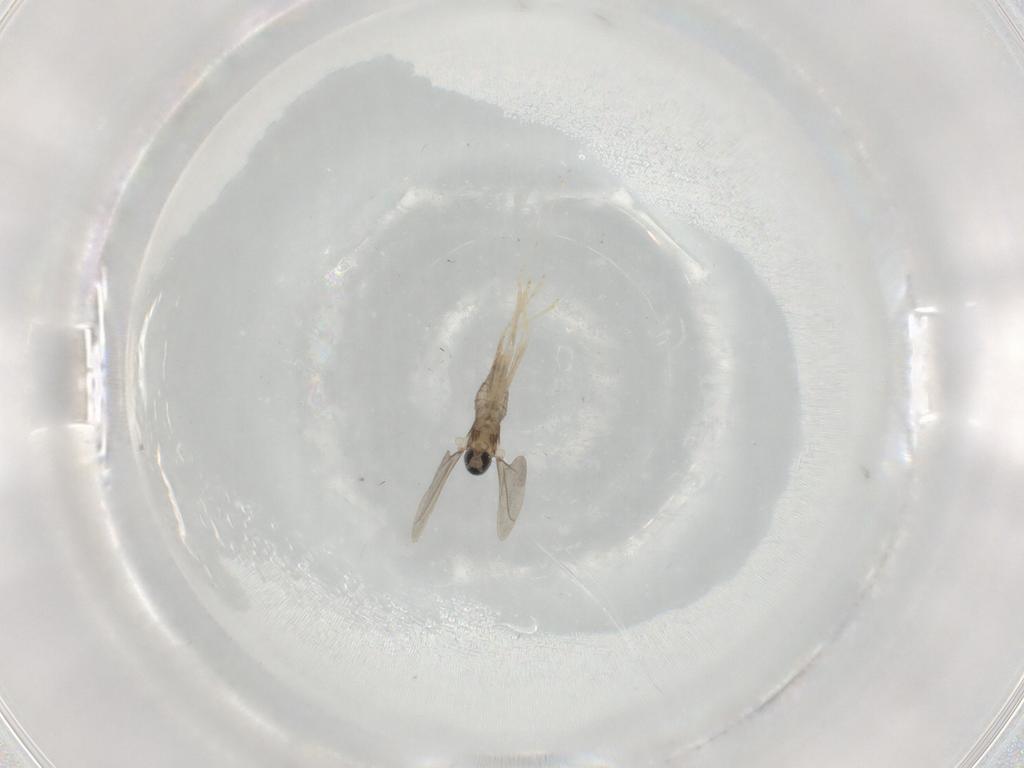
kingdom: Animalia
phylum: Arthropoda
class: Insecta
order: Diptera
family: Cecidomyiidae
